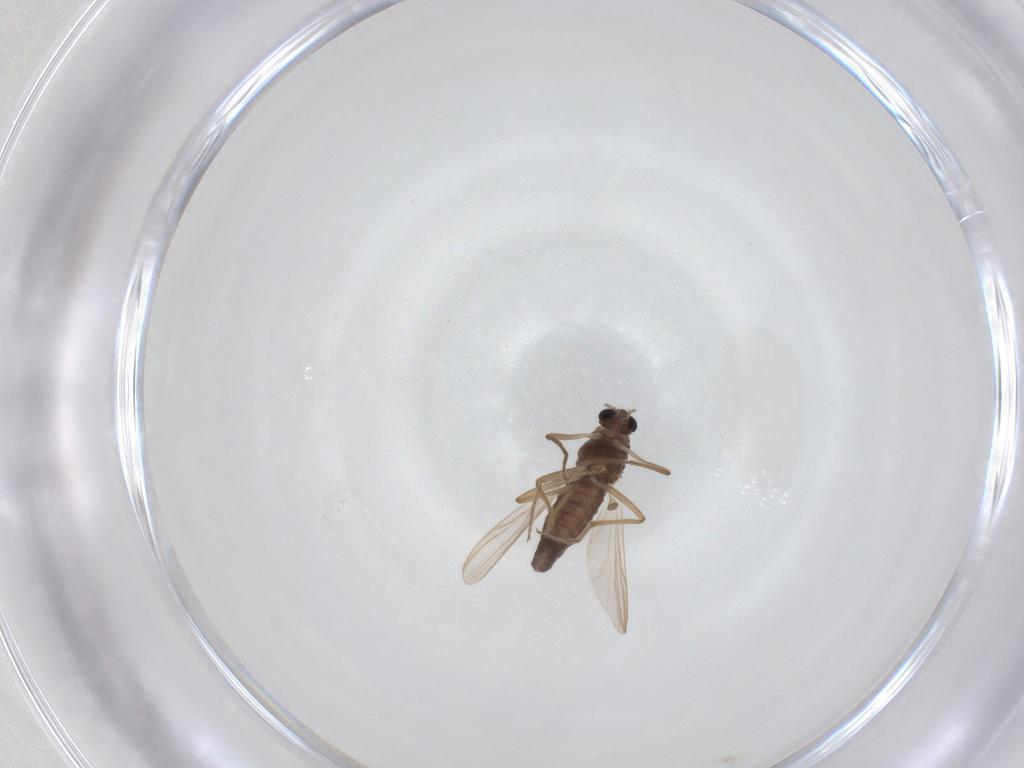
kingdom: Animalia
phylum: Arthropoda
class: Insecta
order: Diptera
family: Chironomidae
